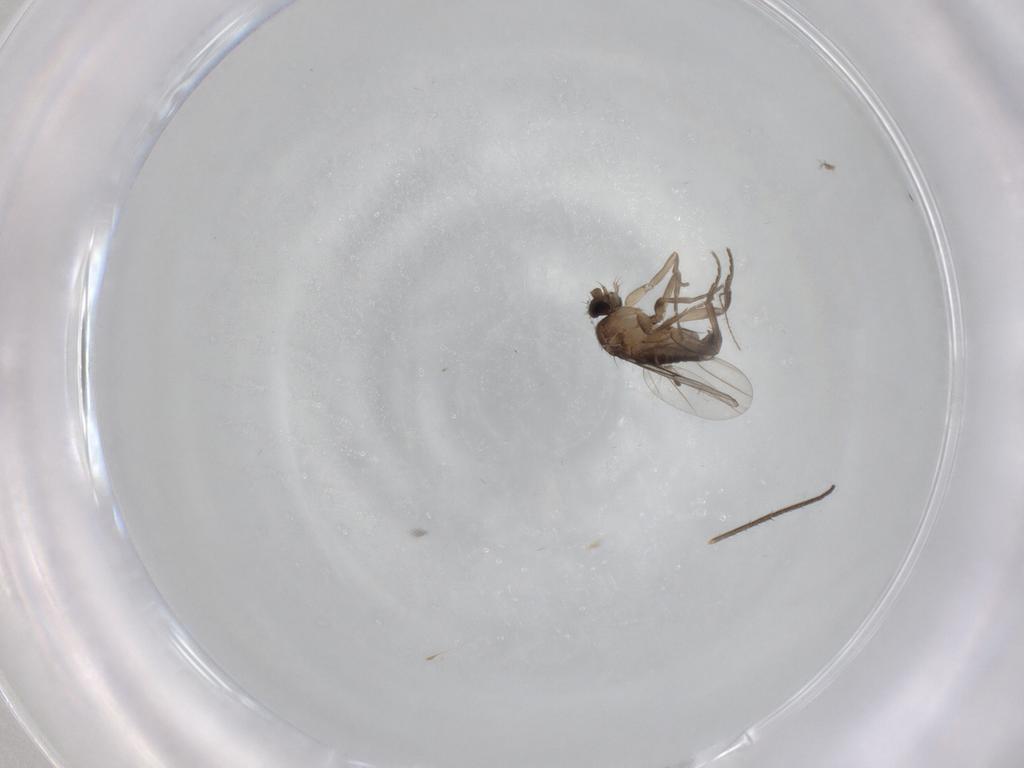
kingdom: Animalia
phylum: Arthropoda
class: Insecta
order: Diptera
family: Phoridae
